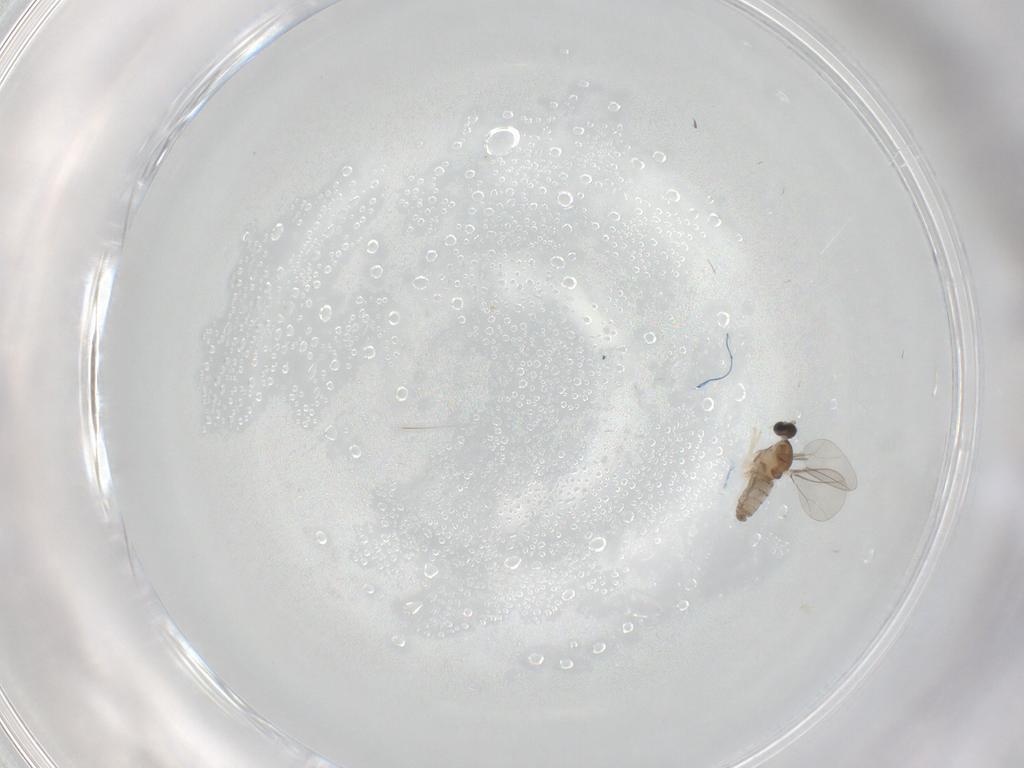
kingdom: Animalia
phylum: Arthropoda
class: Insecta
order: Diptera
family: Cecidomyiidae
